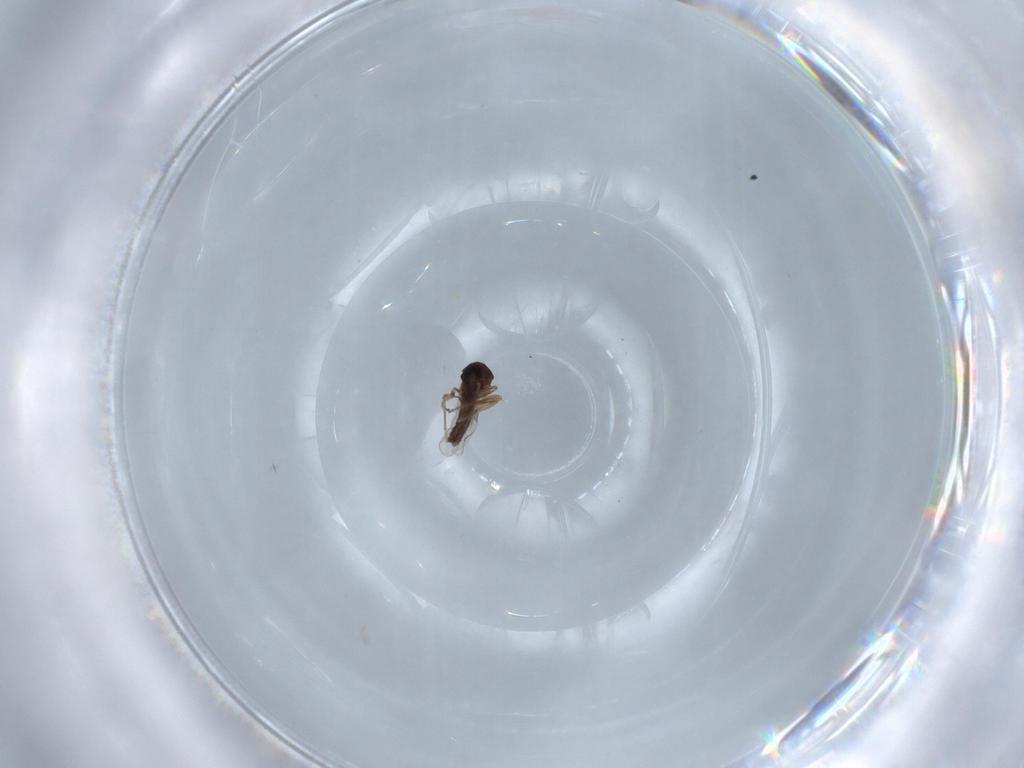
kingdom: Animalia
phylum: Arthropoda
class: Insecta
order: Diptera
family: Ceratopogonidae
